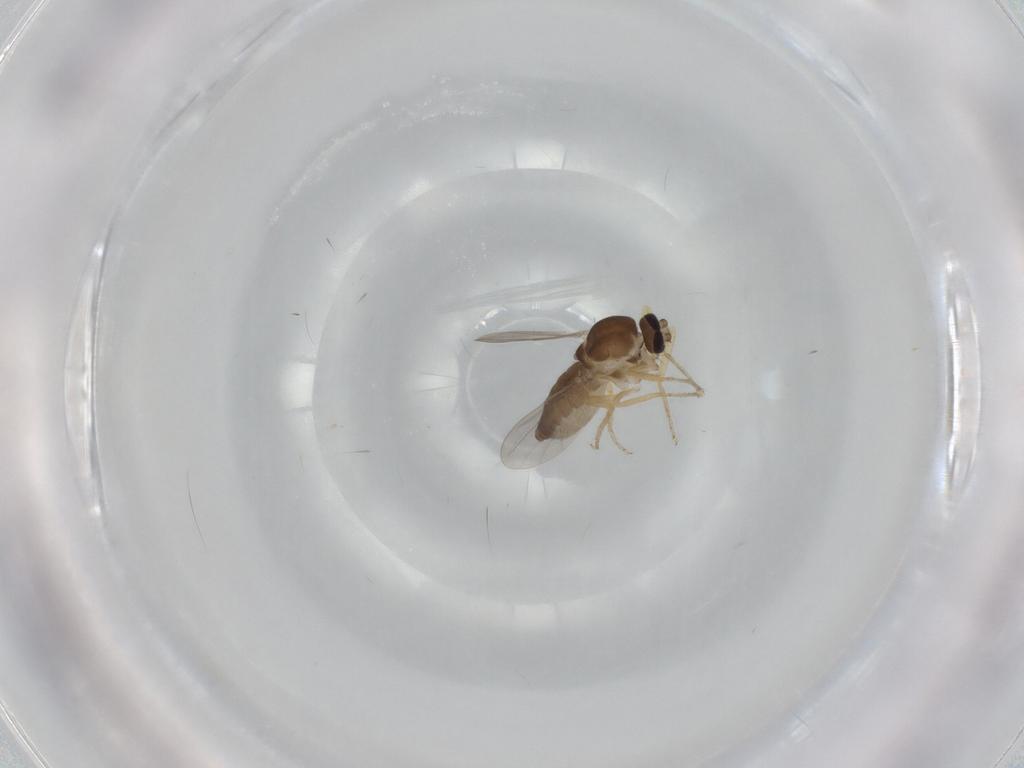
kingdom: Animalia
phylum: Arthropoda
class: Insecta
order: Diptera
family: Ceratopogonidae
